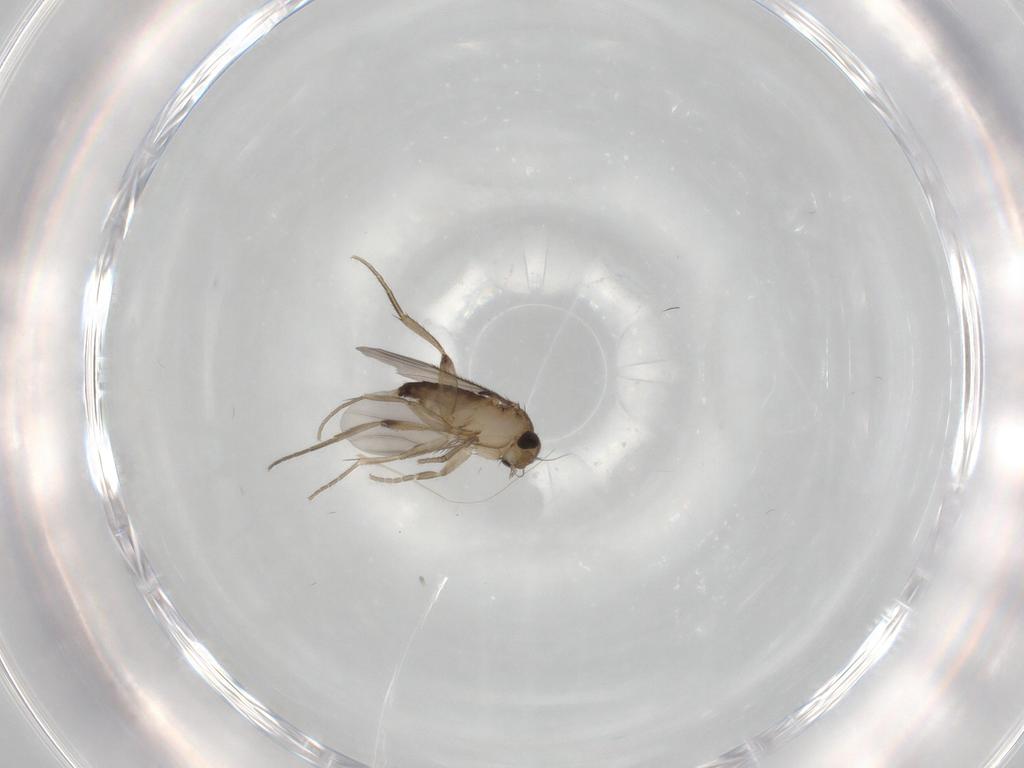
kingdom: Animalia
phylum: Arthropoda
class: Insecta
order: Diptera
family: Phoridae
